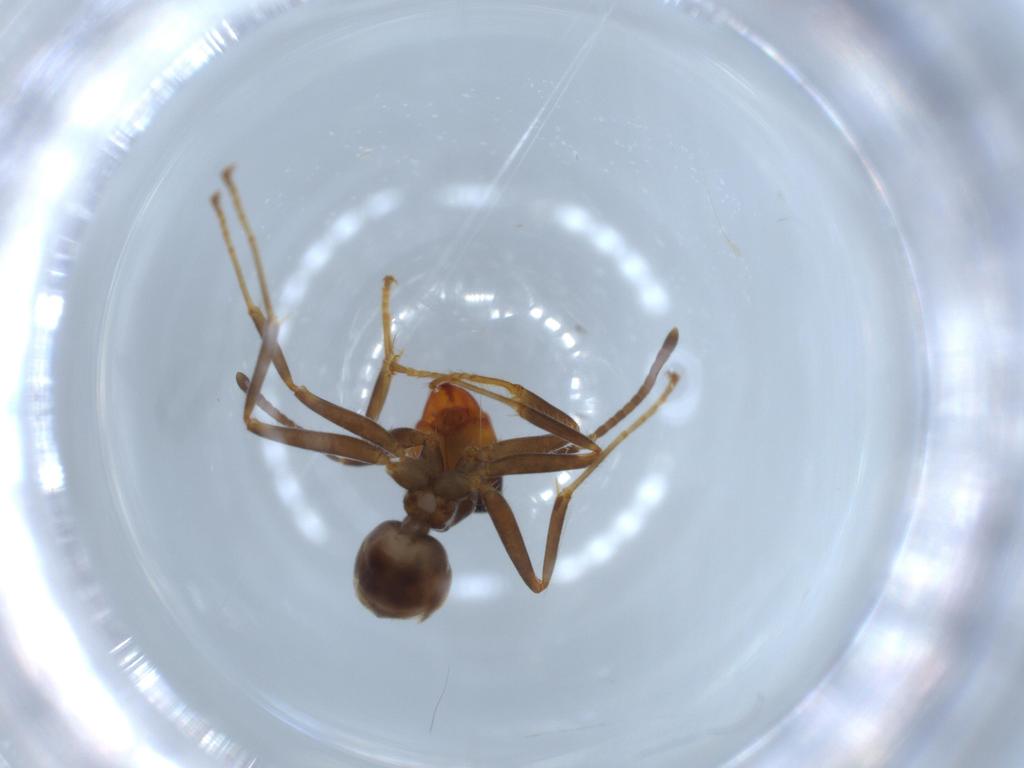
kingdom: Animalia
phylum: Arthropoda
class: Insecta
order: Hymenoptera
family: Formicidae
